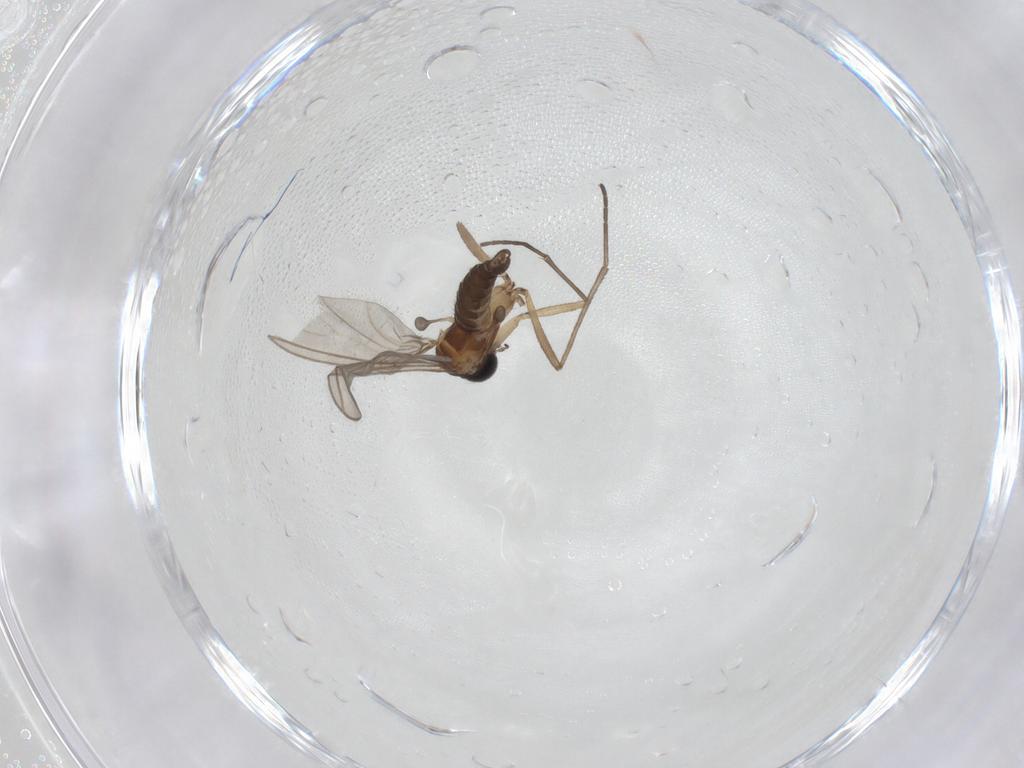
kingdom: Animalia
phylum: Arthropoda
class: Insecta
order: Diptera
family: Sciaridae
